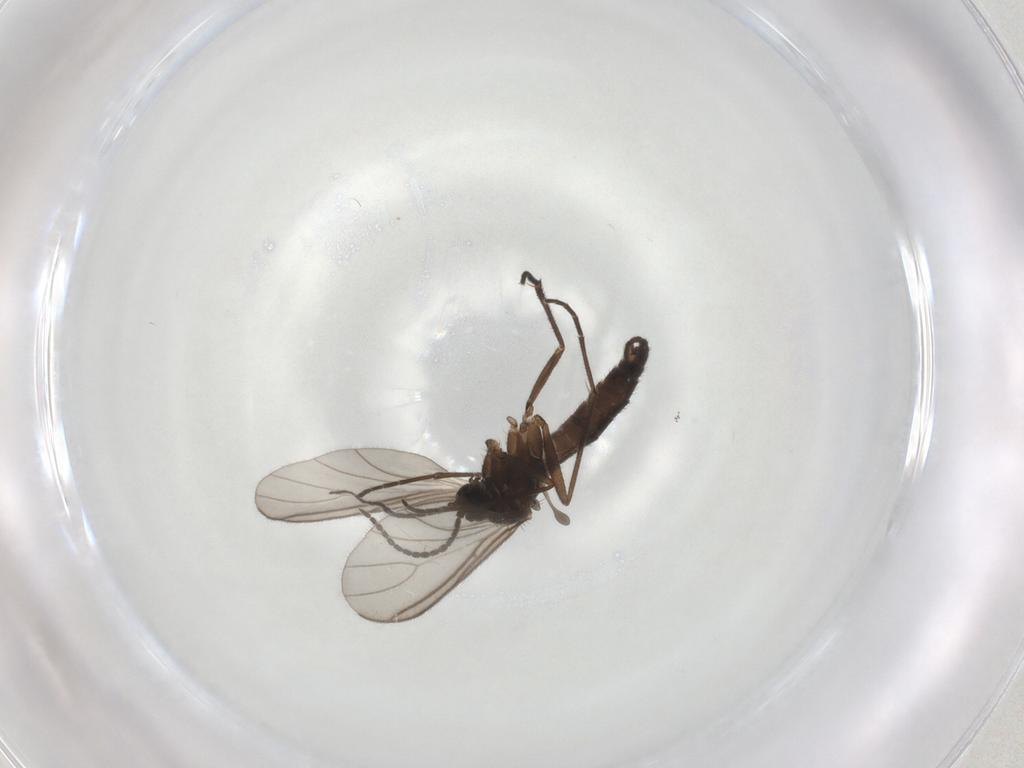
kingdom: Animalia
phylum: Arthropoda
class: Insecta
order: Diptera
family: Sciaridae
